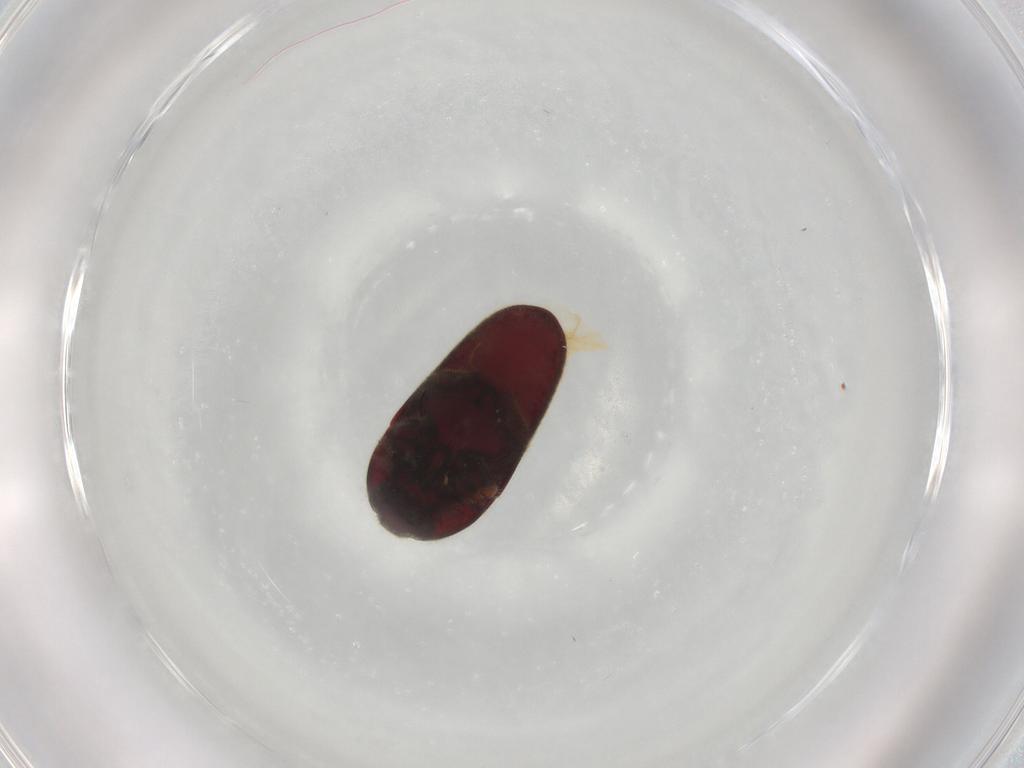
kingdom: Animalia
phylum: Arthropoda
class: Insecta
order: Coleoptera
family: Throscidae
